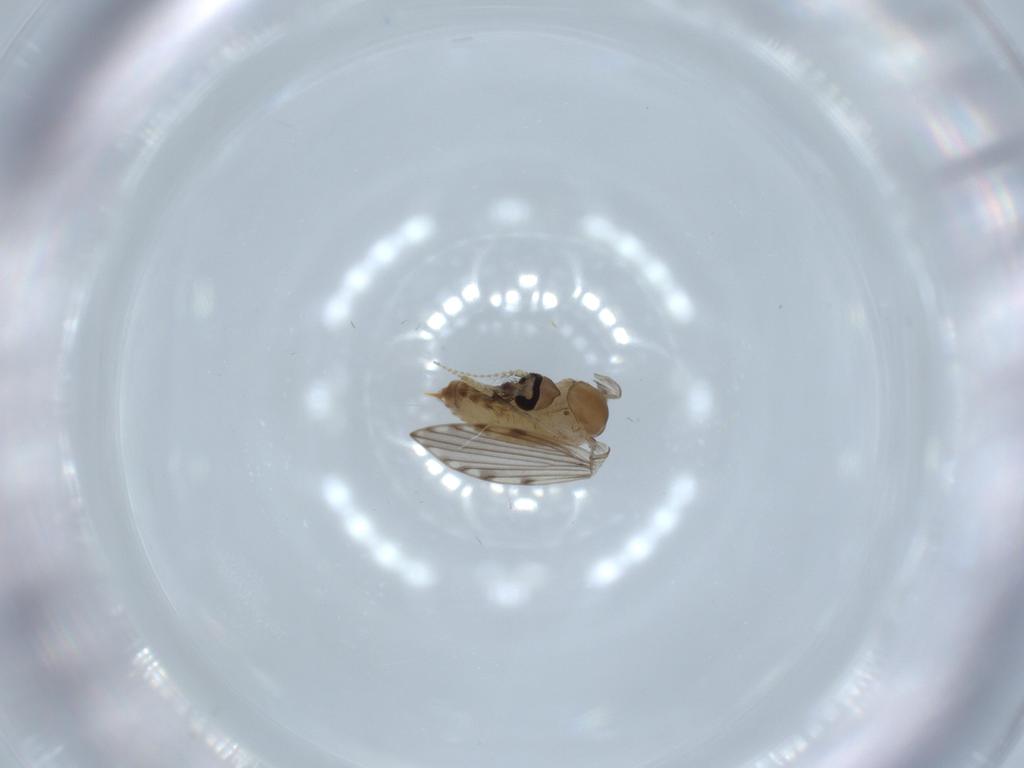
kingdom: Animalia
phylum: Arthropoda
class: Insecta
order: Diptera
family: Psychodidae
